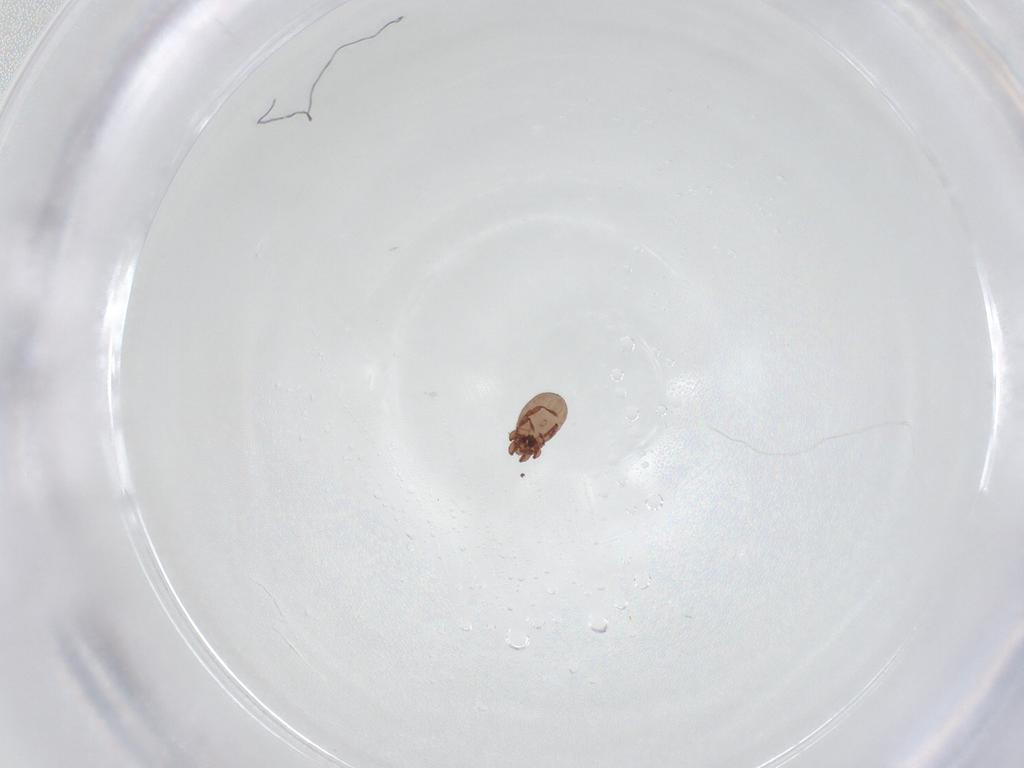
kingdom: Animalia
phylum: Arthropoda
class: Arachnida
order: Sarcoptiformes
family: Eremaeidae
